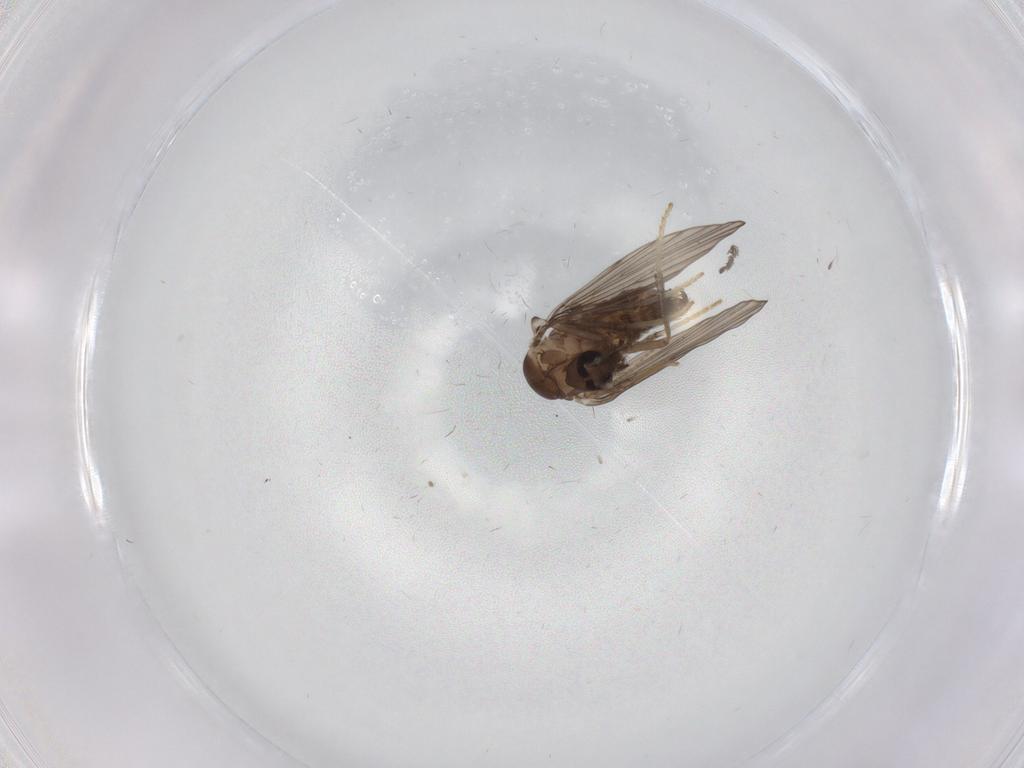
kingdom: Animalia
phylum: Arthropoda
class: Insecta
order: Diptera
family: Psychodidae
